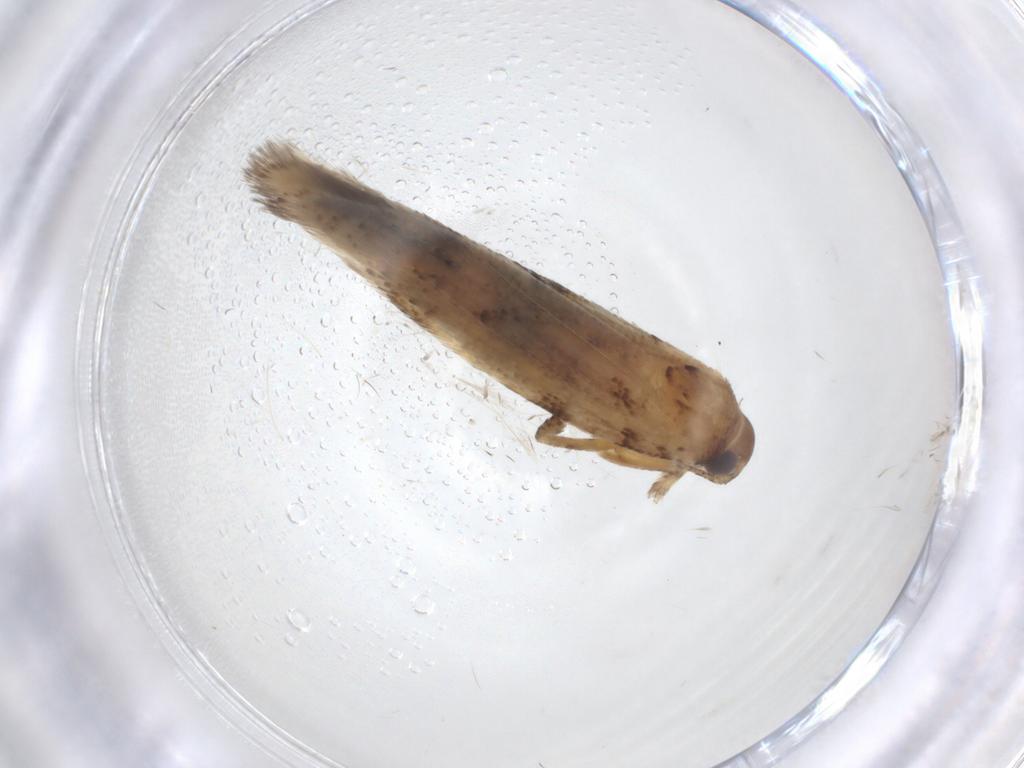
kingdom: Animalia
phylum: Arthropoda
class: Insecta
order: Lepidoptera
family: Gelechiidae
